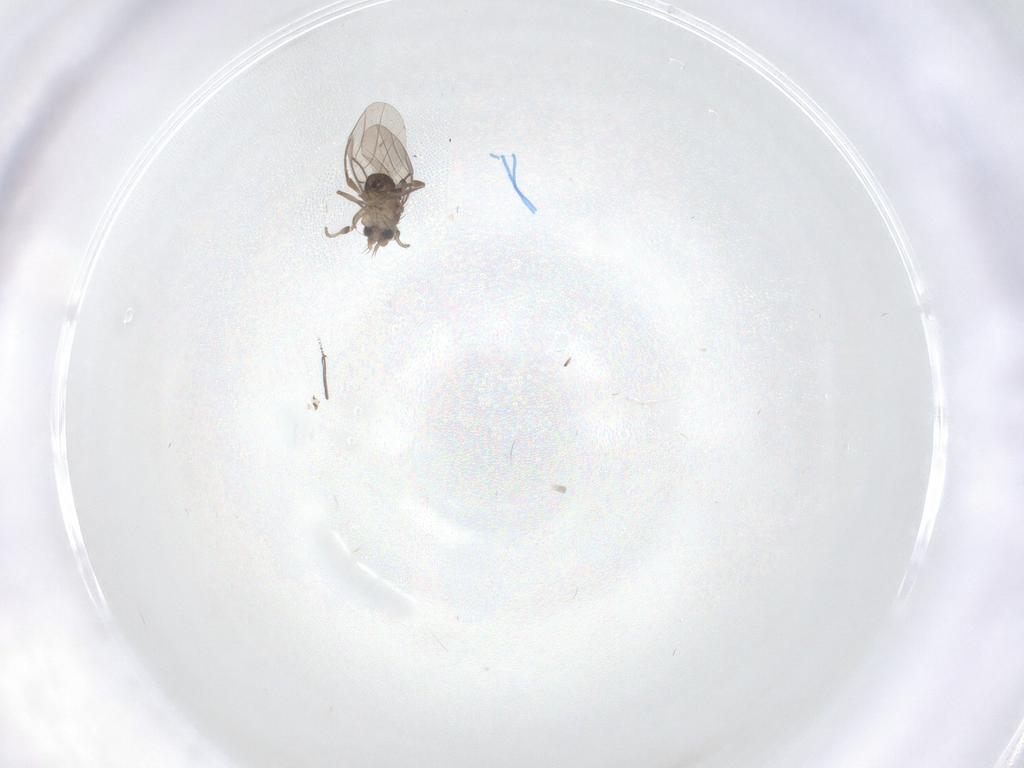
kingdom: Animalia
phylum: Arthropoda
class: Insecta
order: Diptera
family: Phoridae
